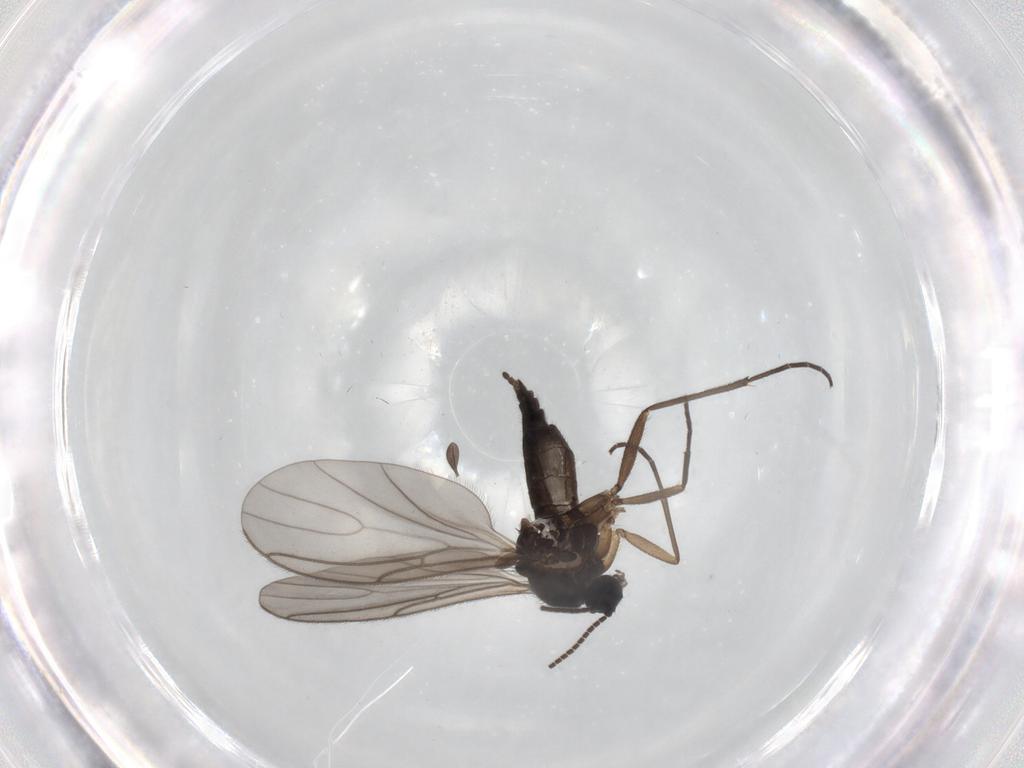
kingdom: Animalia
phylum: Arthropoda
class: Insecta
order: Diptera
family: Sciaridae
